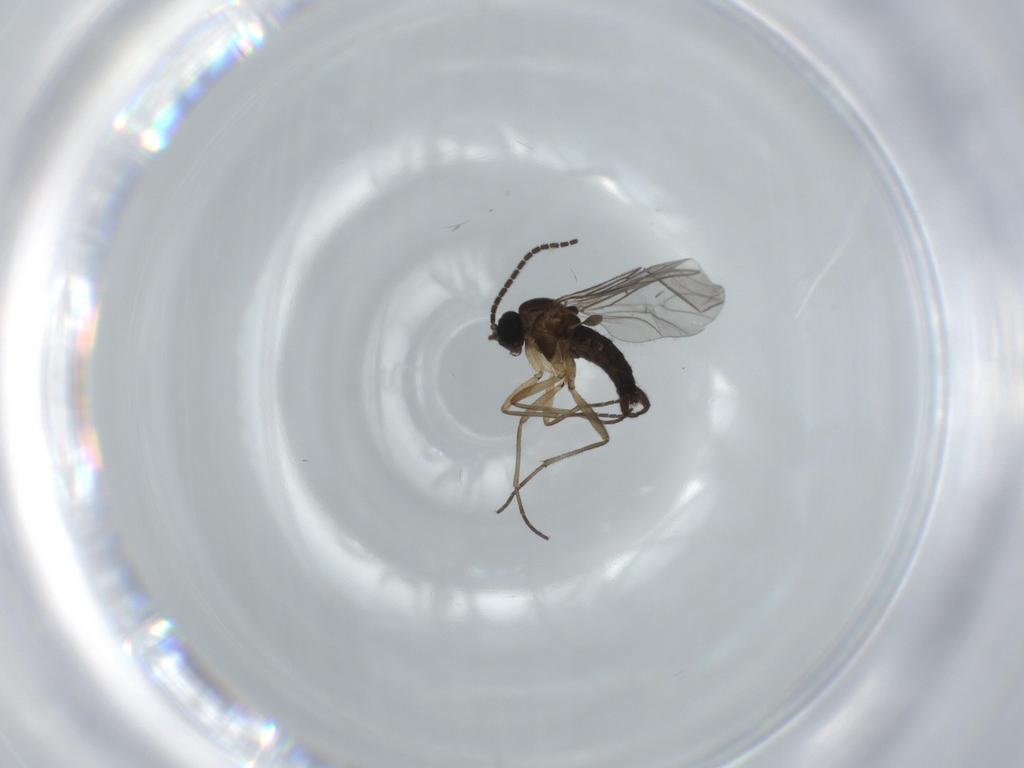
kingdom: Animalia
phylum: Arthropoda
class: Insecta
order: Diptera
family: Sciaridae
